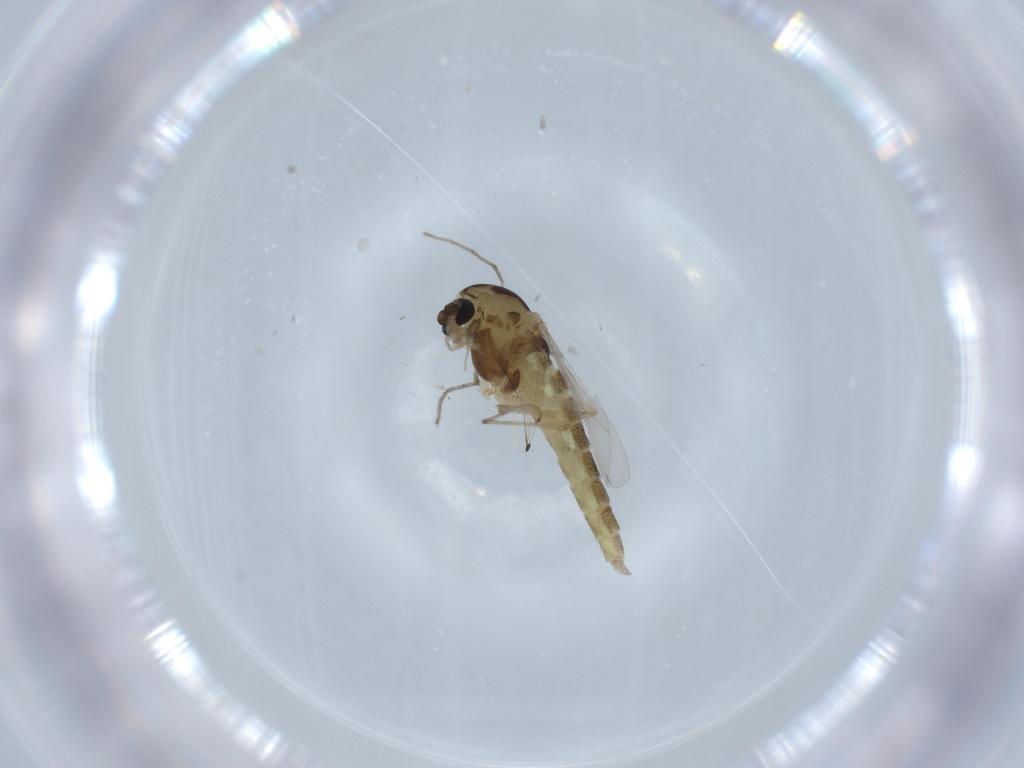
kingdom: Animalia
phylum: Arthropoda
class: Insecta
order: Diptera
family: Chironomidae
